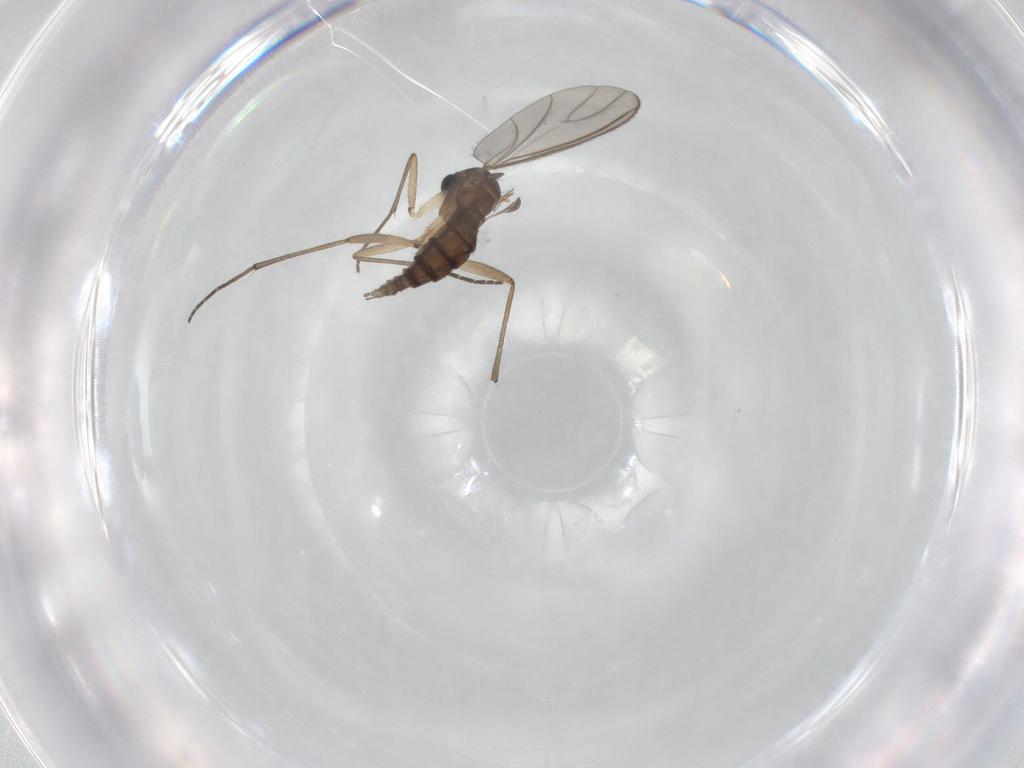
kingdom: Animalia
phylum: Arthropoda
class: Insecta
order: Diptera
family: Sciaridae
